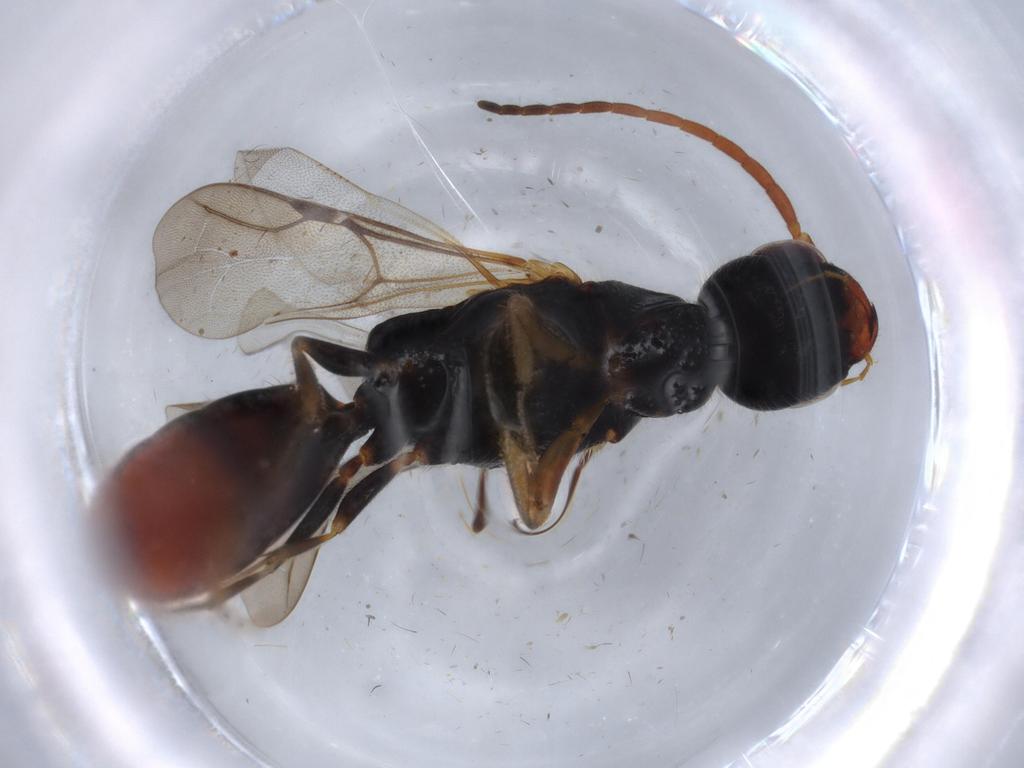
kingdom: Animalia
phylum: Arthropoda
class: Insecta
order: Hymenoptera
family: Bethylidae
